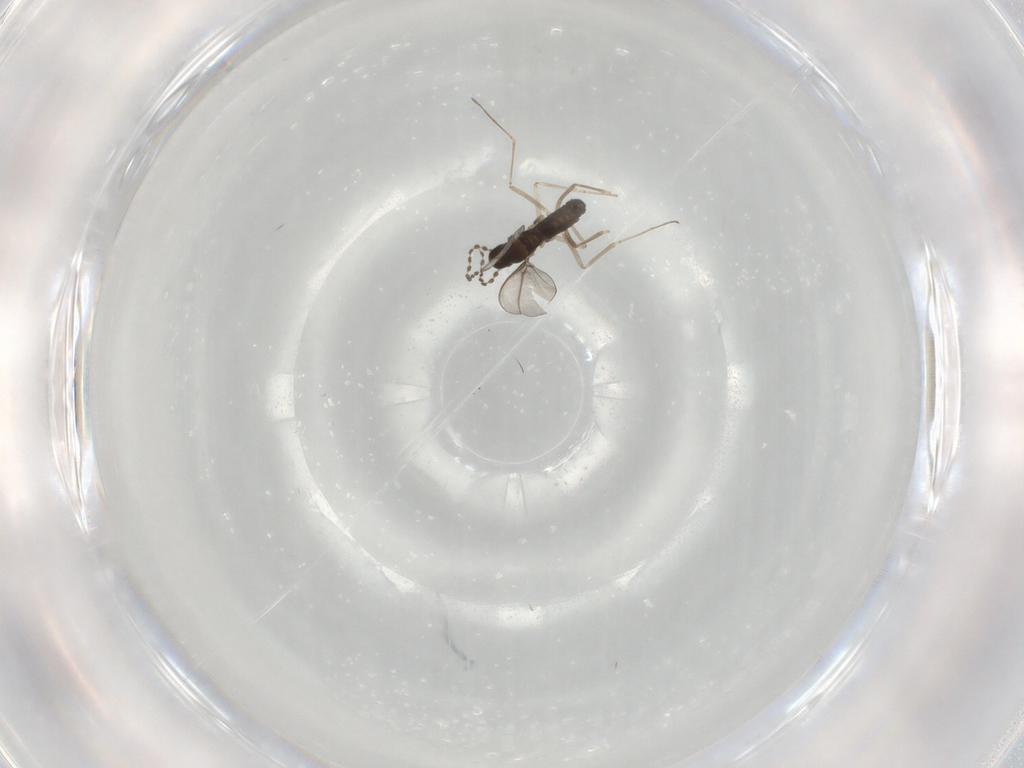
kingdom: Animalia
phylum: Arthropoda
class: Insecta
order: Diptera
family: Cecidomyiidae
